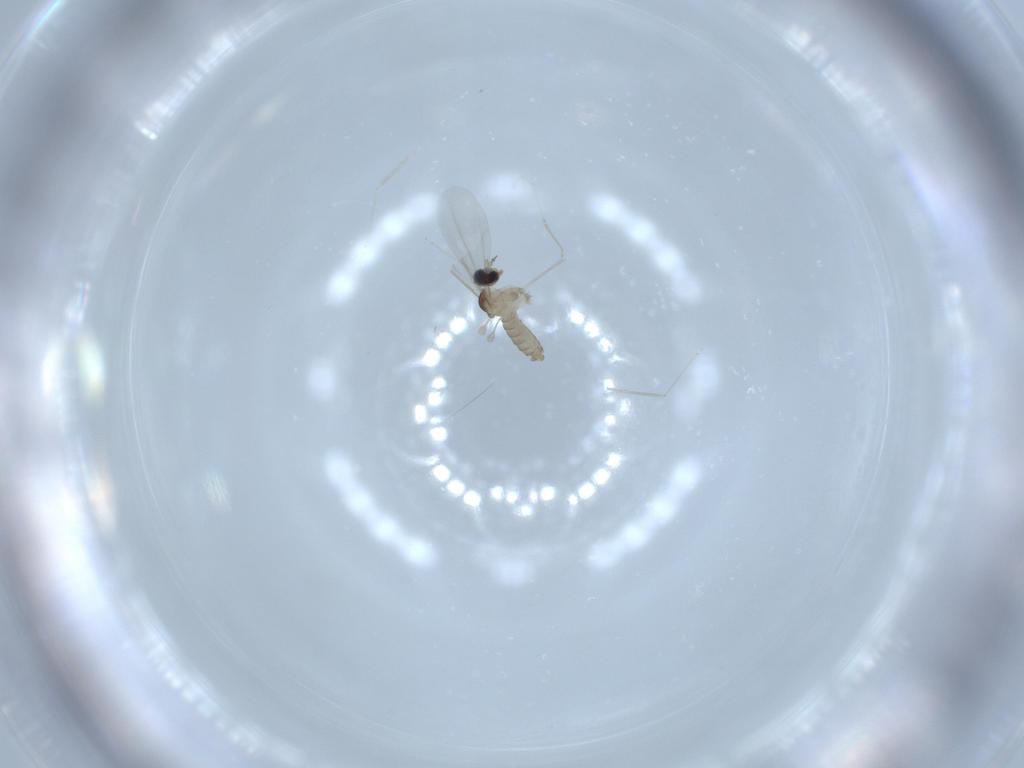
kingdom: Animalia
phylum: Arthropoda
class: Insecta
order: Diptera
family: Cecidomyiidae
